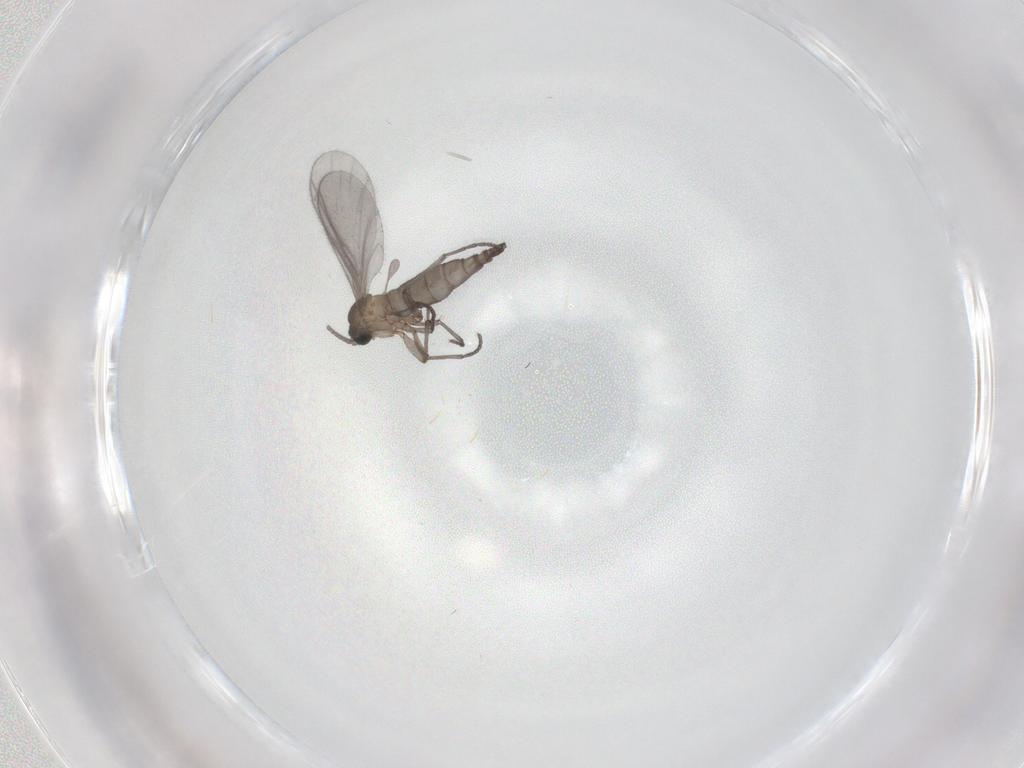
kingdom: Animalia
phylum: Arthropoda
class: Insecta
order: Diptera
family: Sciaridae
